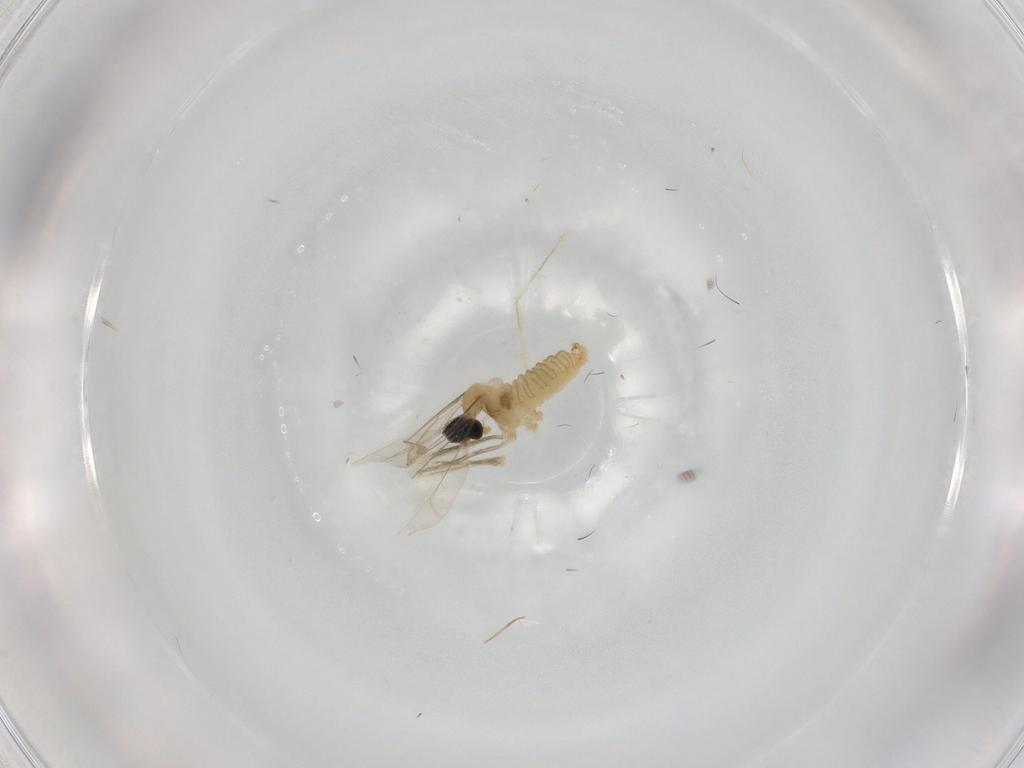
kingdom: Animalia
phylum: Arthropoda
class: Insecta
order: Diptera
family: Cecidomyiidae
